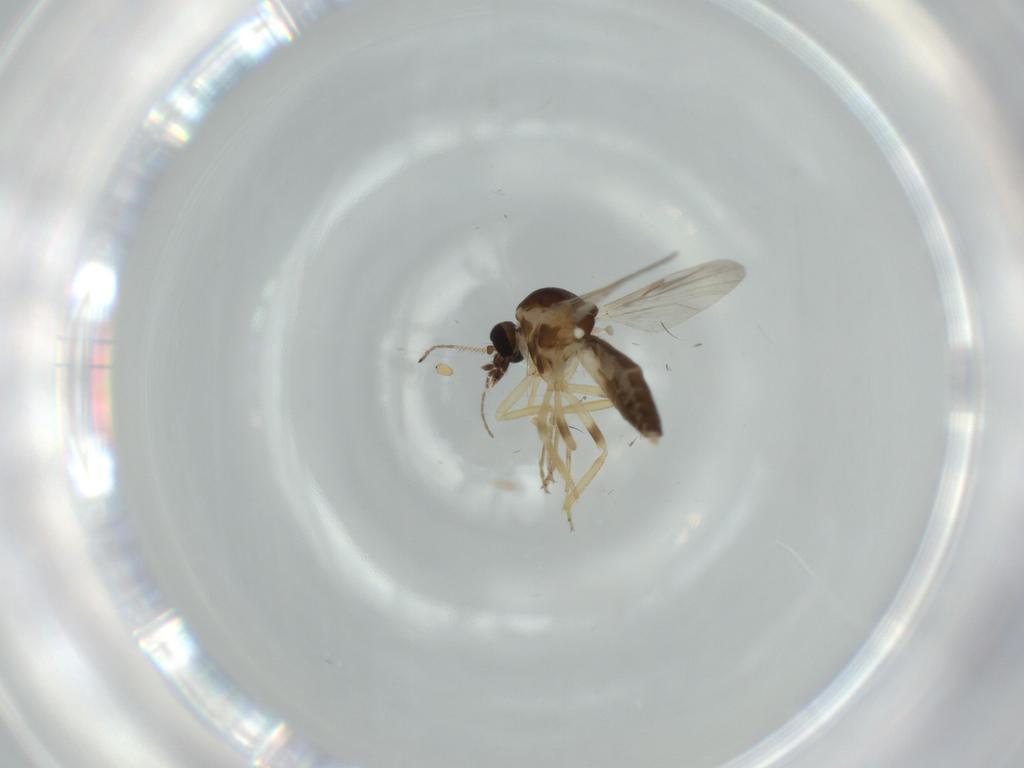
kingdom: Animalia
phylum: Arthropoda
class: Insecta
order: Diptera
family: Ceratopogonidae
